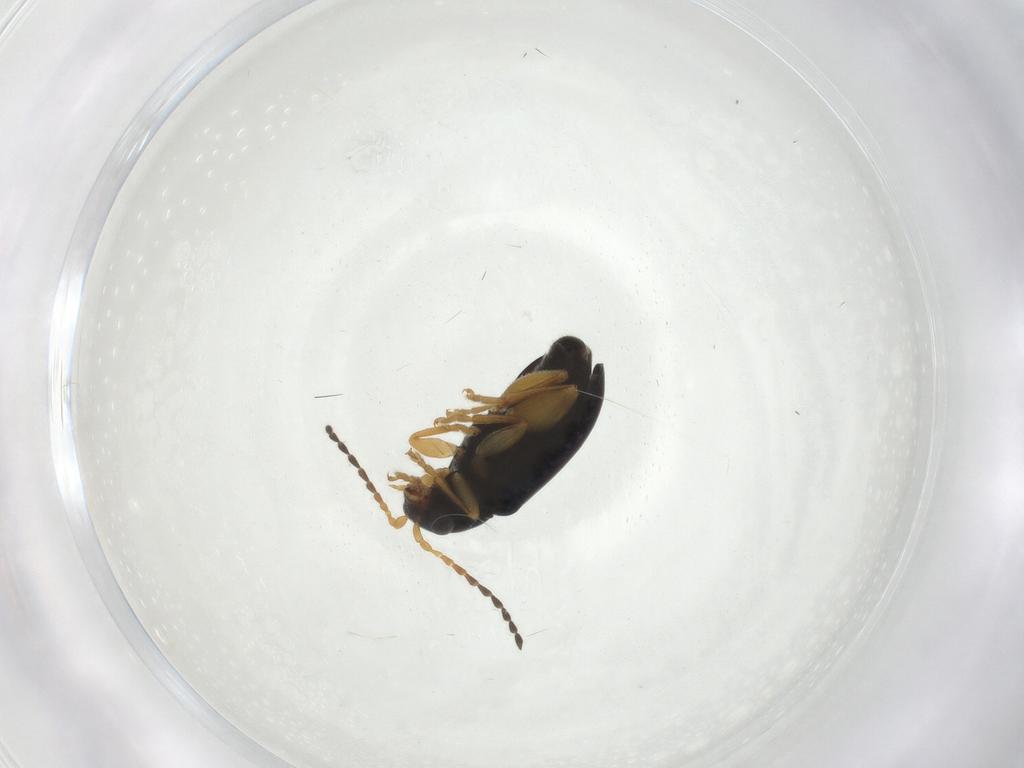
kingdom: Animalia
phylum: Arthropoda
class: Insecta
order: Coleoptera
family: Chrysomelidae
